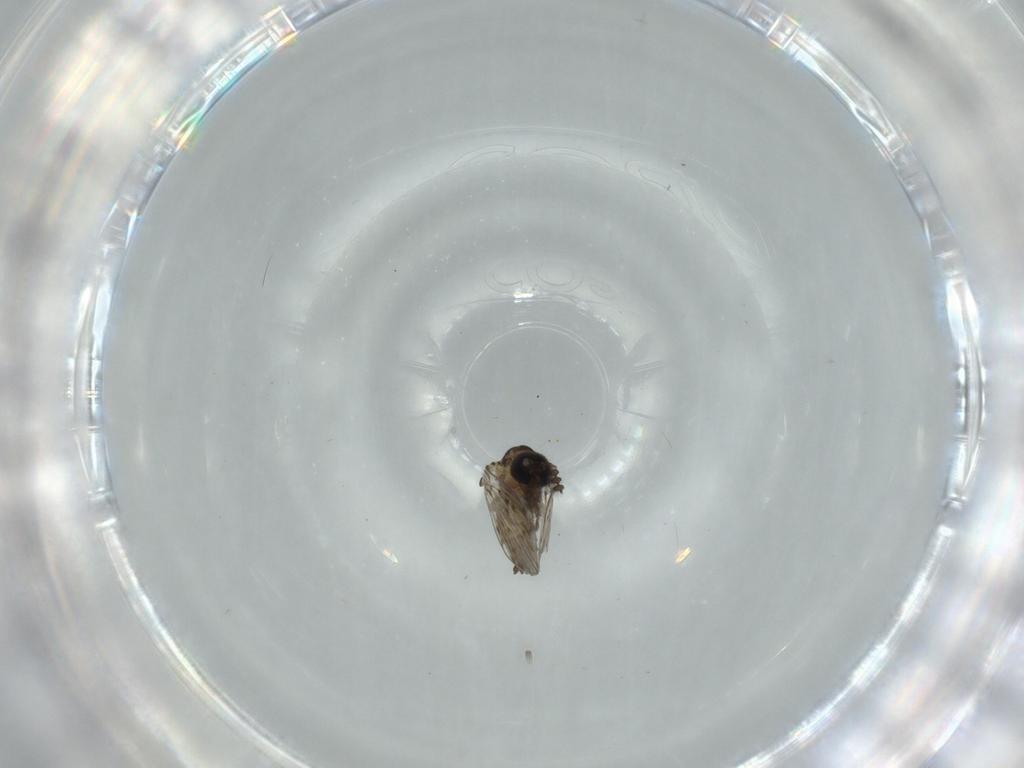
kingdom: Animalia
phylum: Arthropoda
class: Insecta
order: Diptera
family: Psychodidae
